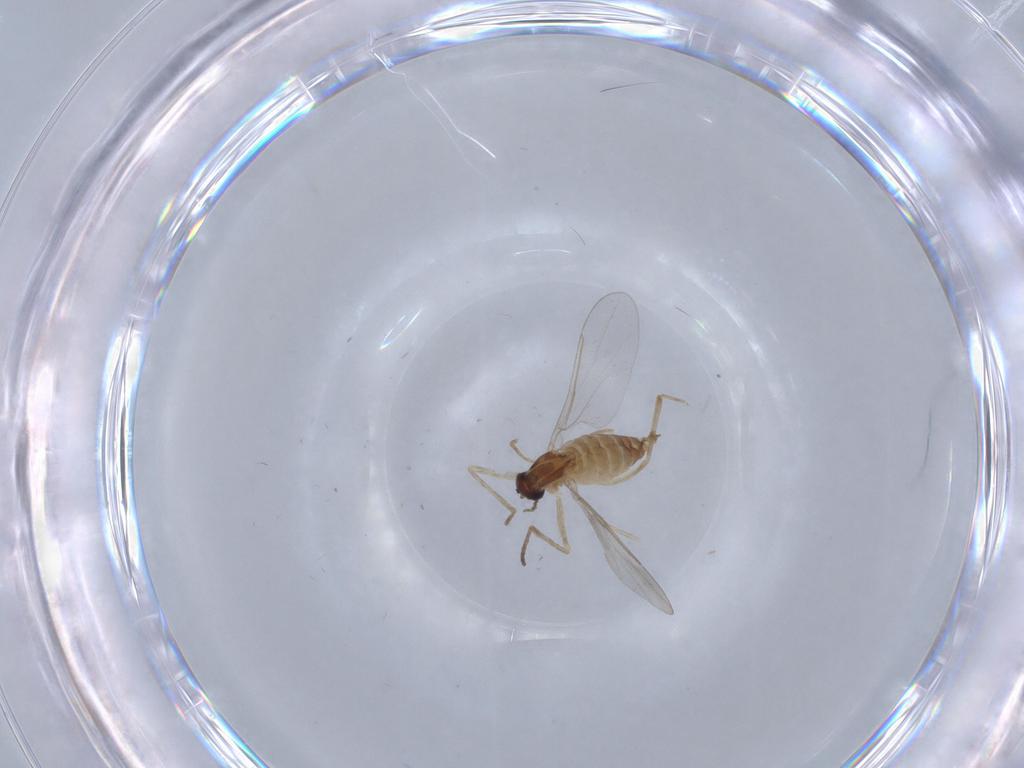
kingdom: Animalia
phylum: Arthropoda
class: Insecta
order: Diptera
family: Cecidomyiidae
